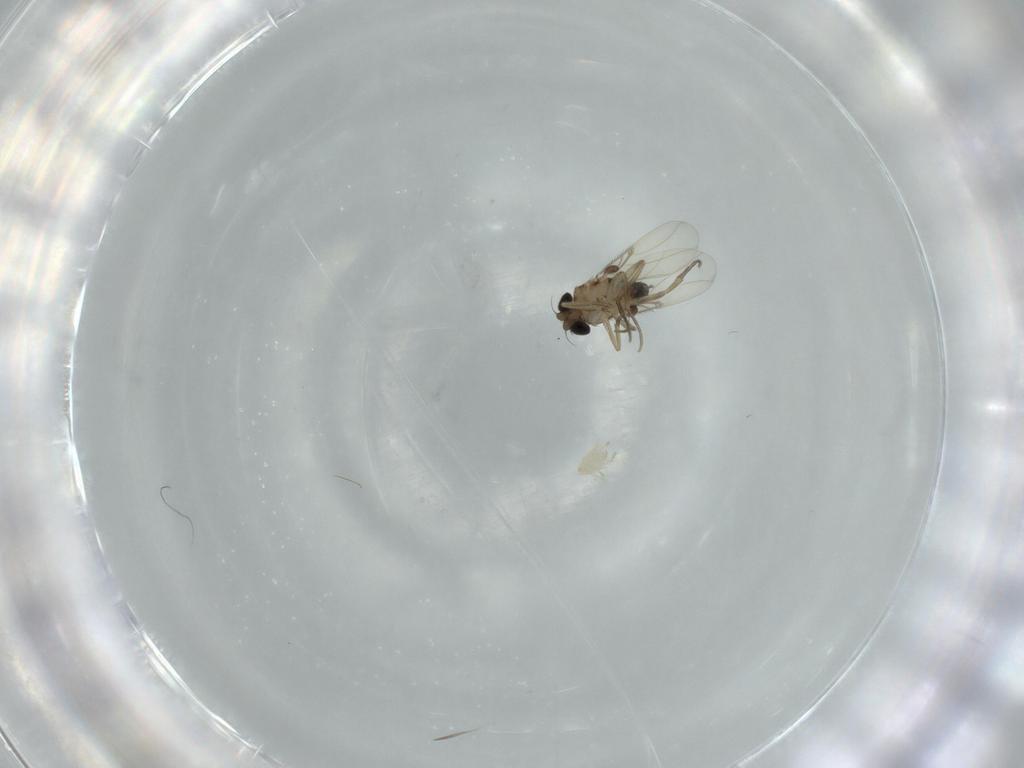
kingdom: Animalia
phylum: Arthropoda
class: Insecta
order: Diptera
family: Phoridae
